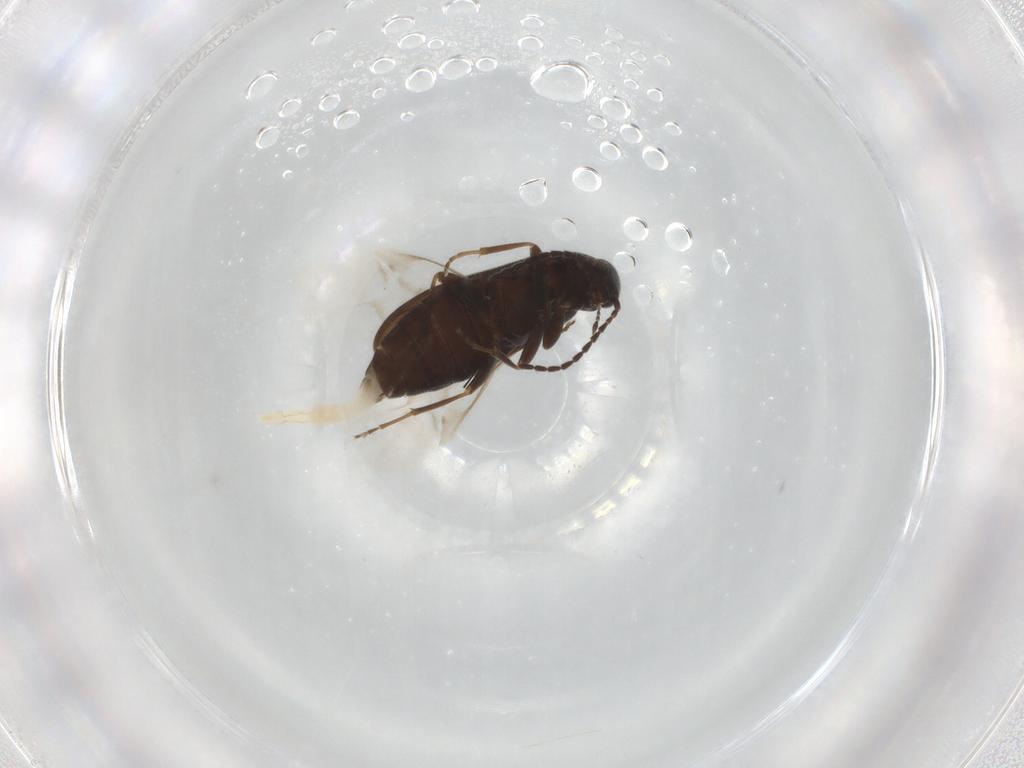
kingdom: Animalia
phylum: Arthropoda
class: Insecta
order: Coleoptera
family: Scraptiidae
